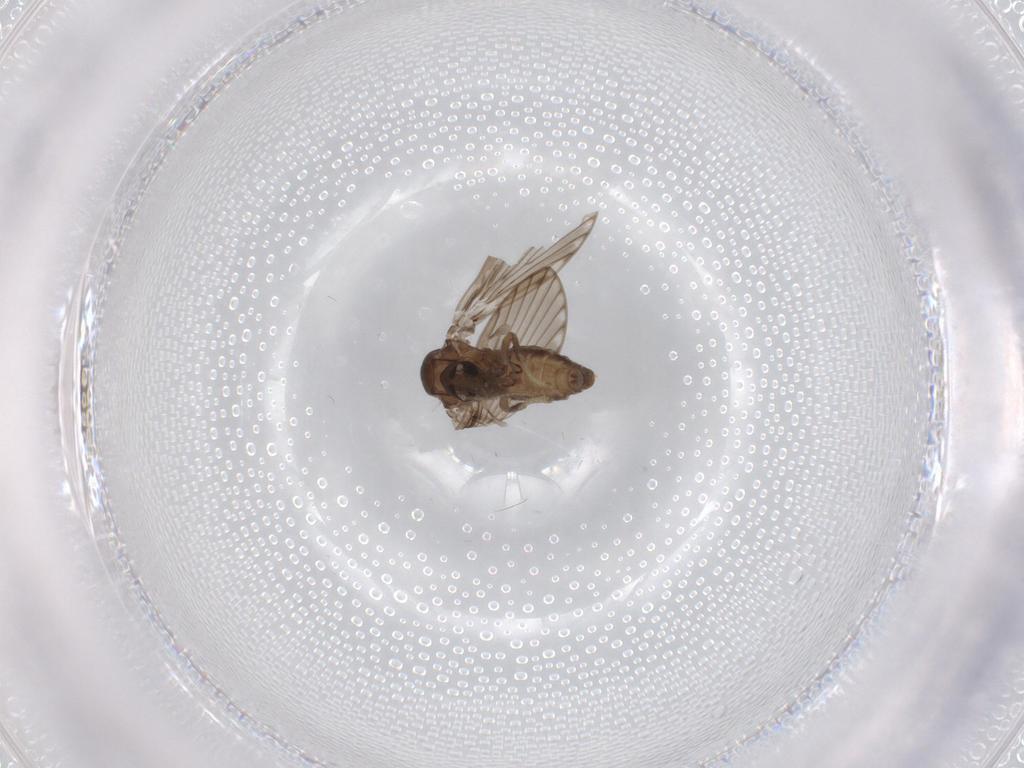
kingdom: Animalia
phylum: Arthropoda
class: Insecta
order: Diptera
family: Psychodidae
